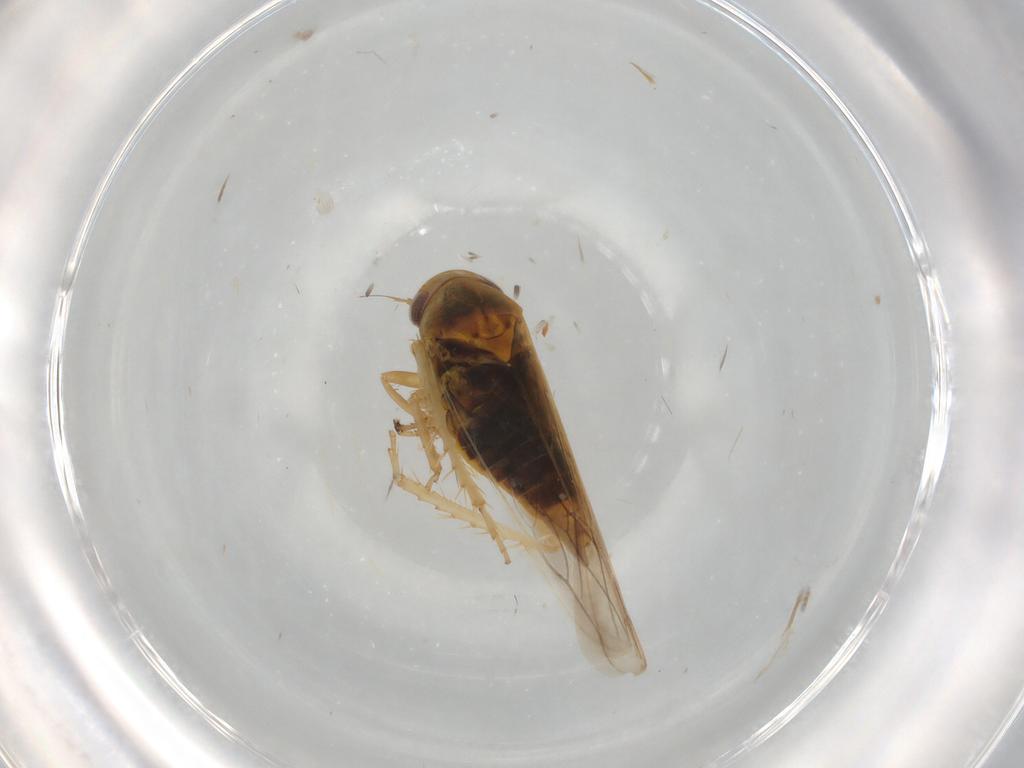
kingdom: Animalia
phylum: Arthropoda
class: Insecta
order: Hemiptera
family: Cicadellidae
